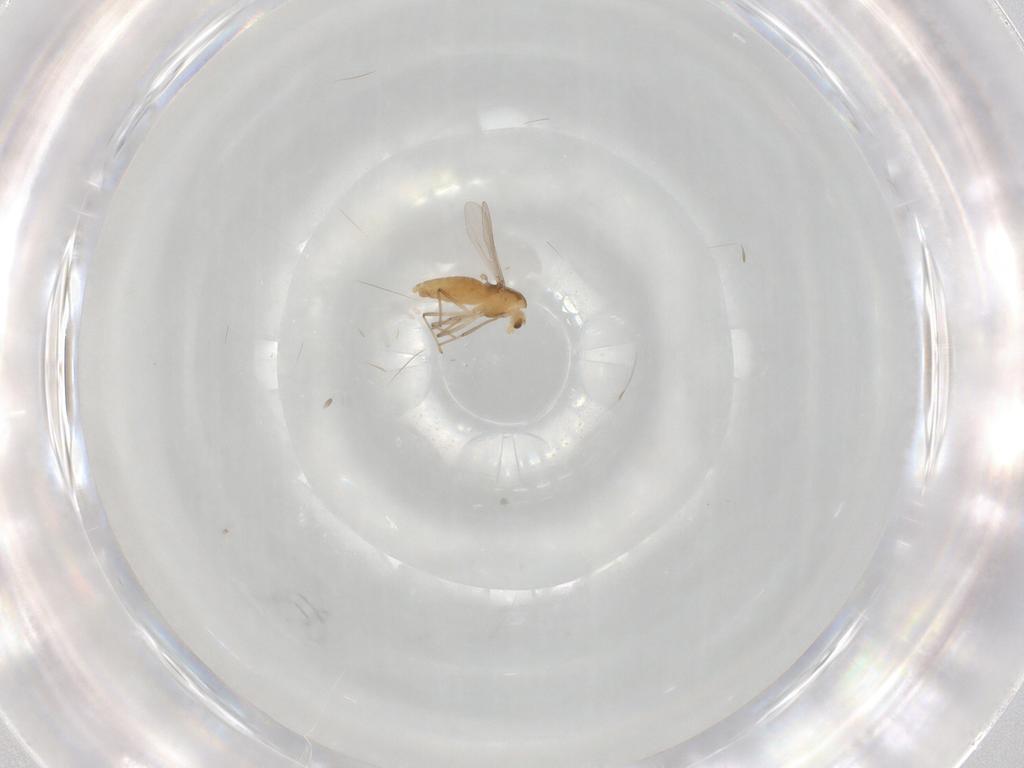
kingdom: Animalia
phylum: Arthropoda
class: Insecta
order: Diptera
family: Chironomidae
